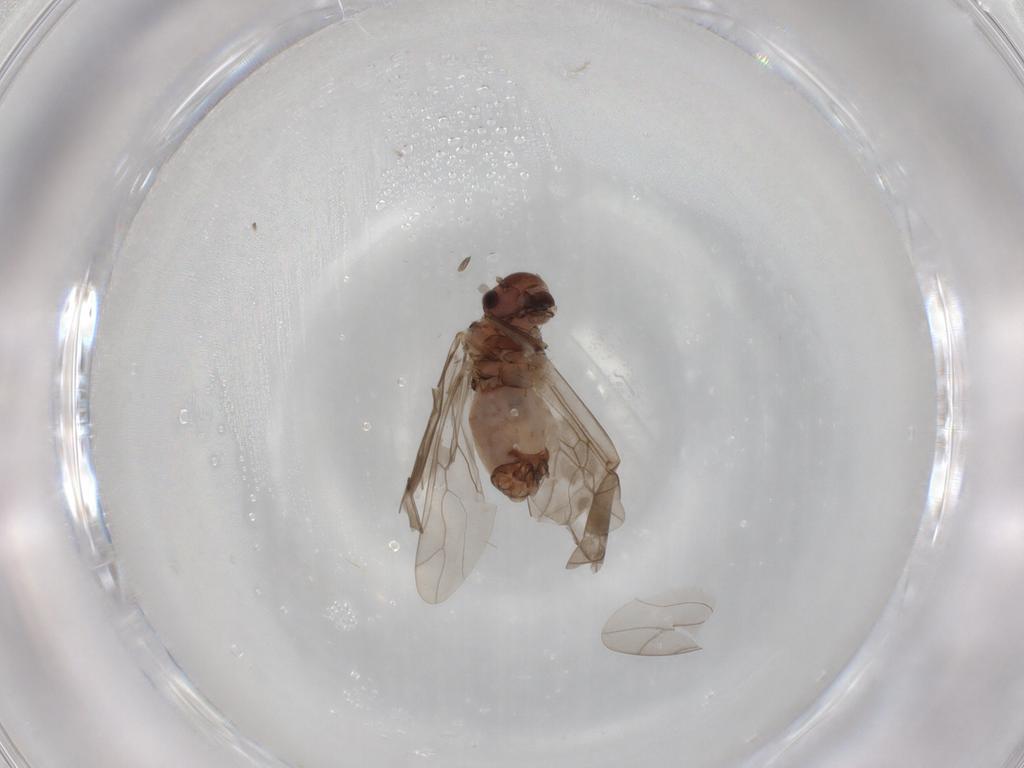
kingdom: Animalia
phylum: Arthropoda
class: Insecta
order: Psocodea
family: Peripsocidae
